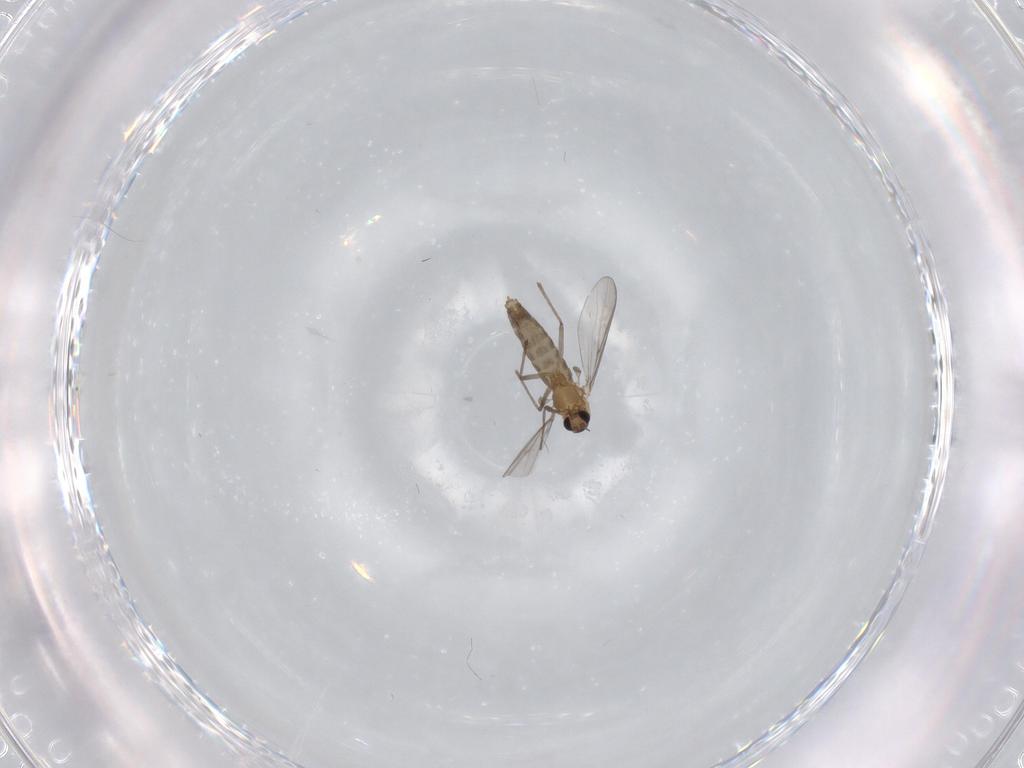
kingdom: Animalia
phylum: Arthropoda
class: Insecta
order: Diptera
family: Chironomidae
